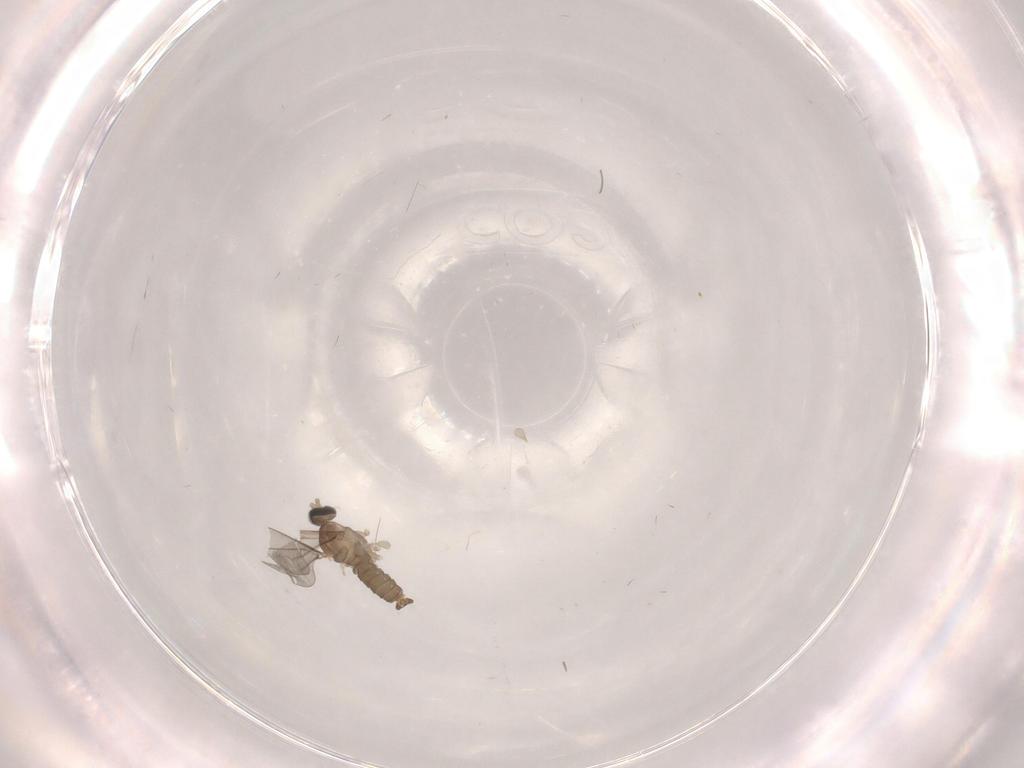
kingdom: Animalia
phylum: Arthropoda
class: Insecta
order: Diptera
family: Cecidomyiidae
